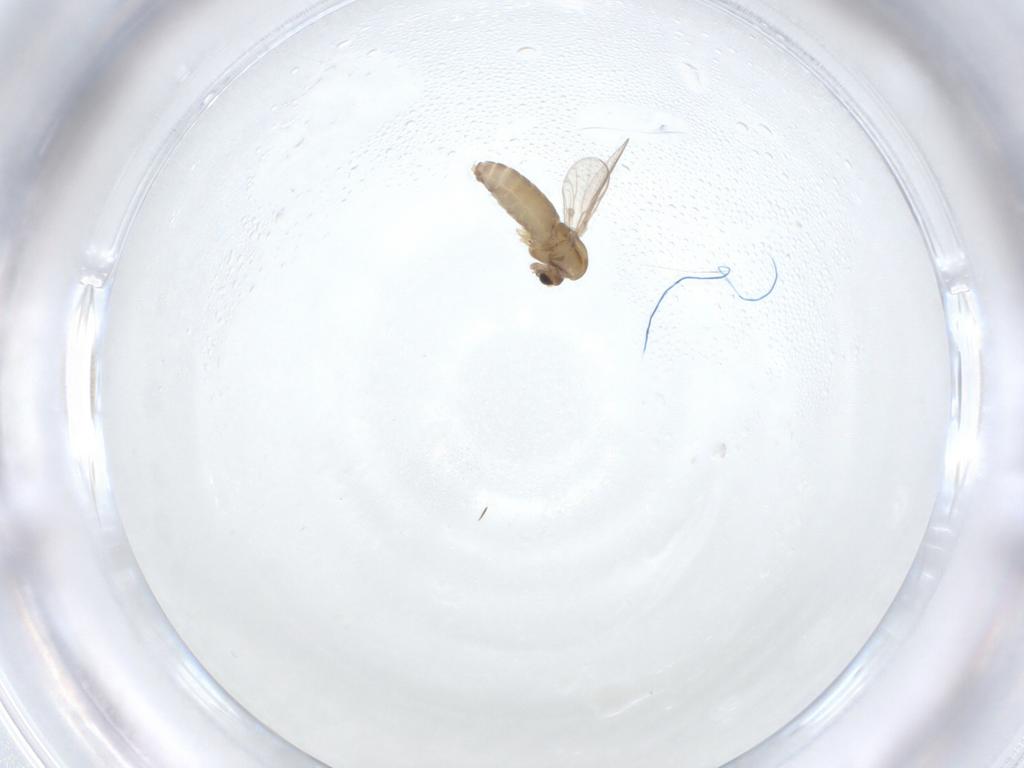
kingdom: Animalia
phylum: Arthropoda
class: Insecta
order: Diptera
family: Chironomidae
